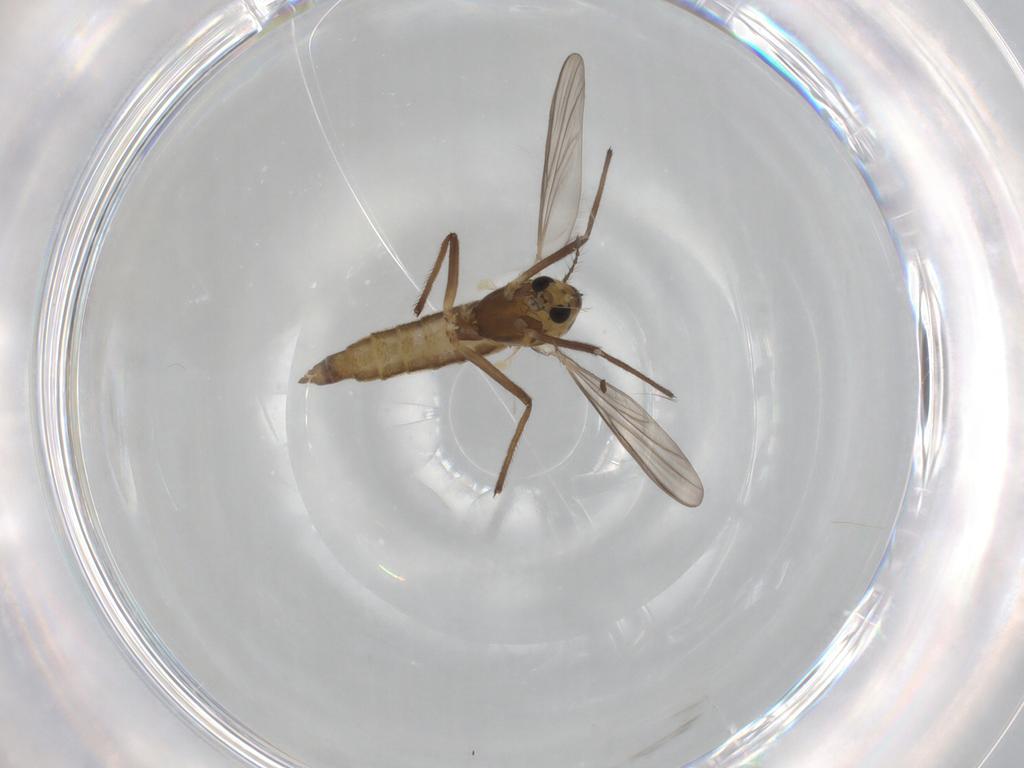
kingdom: Animalia
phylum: Arthropoda
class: Insecta
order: Diptera
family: Chironomidae
